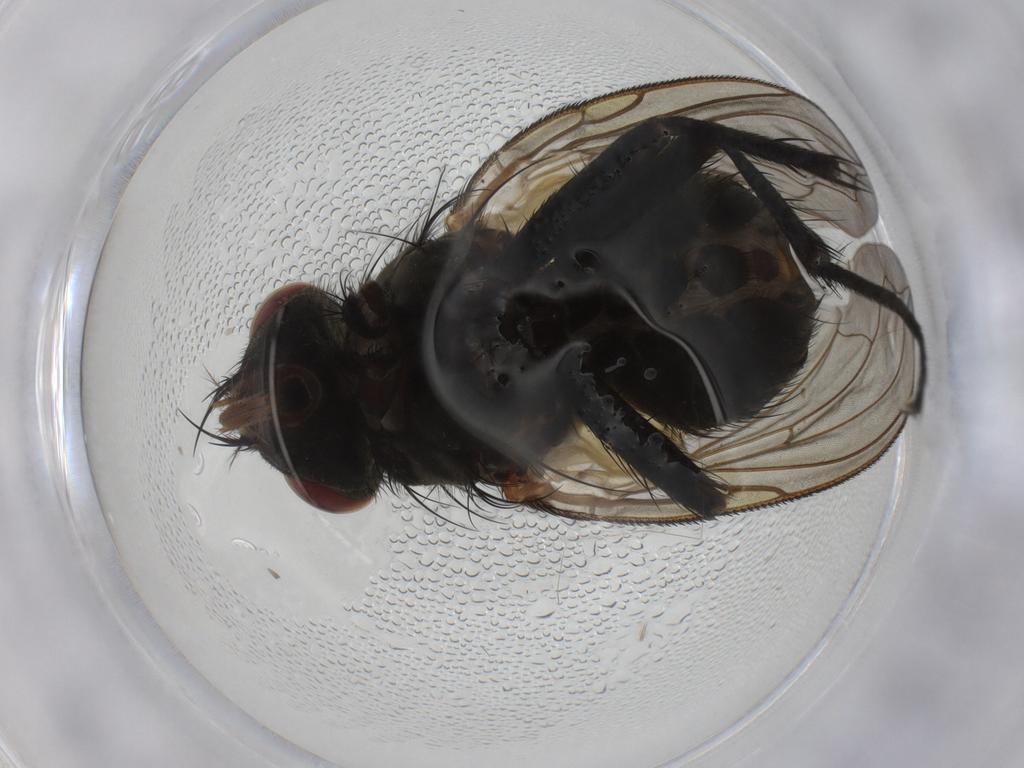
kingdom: Animalia
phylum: Arthropoda
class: Insecta
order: Diptera
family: Calliphoridae
